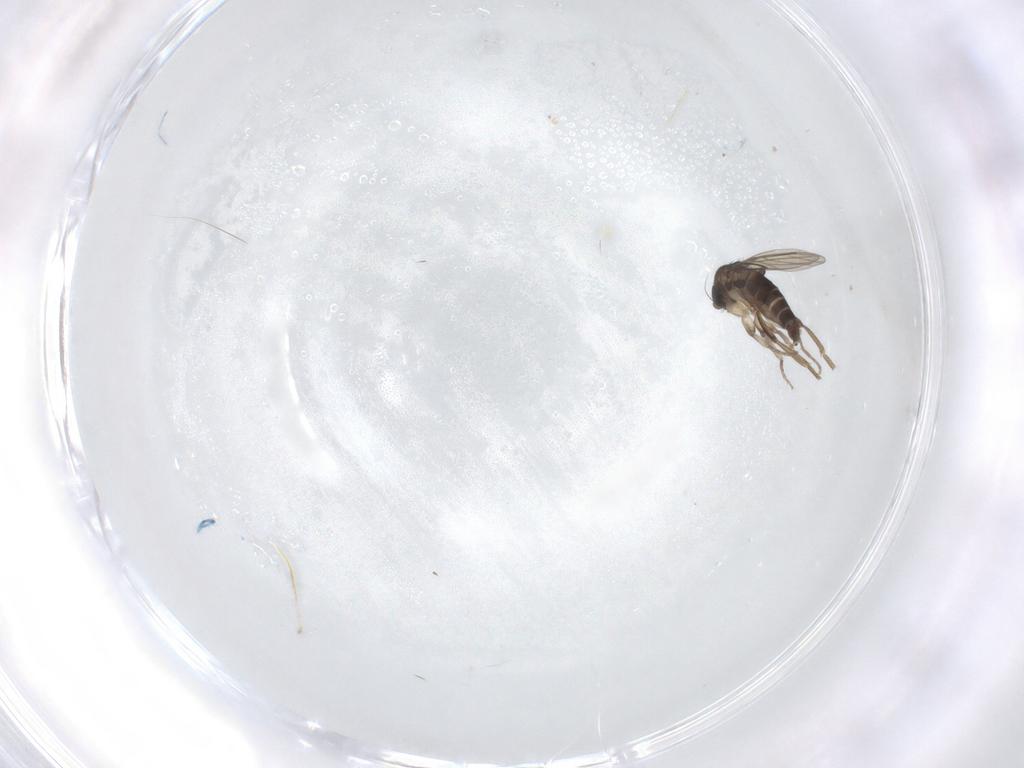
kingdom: Animalia
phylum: Arthropoda
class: Insecta
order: Diptera
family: Phoridae
